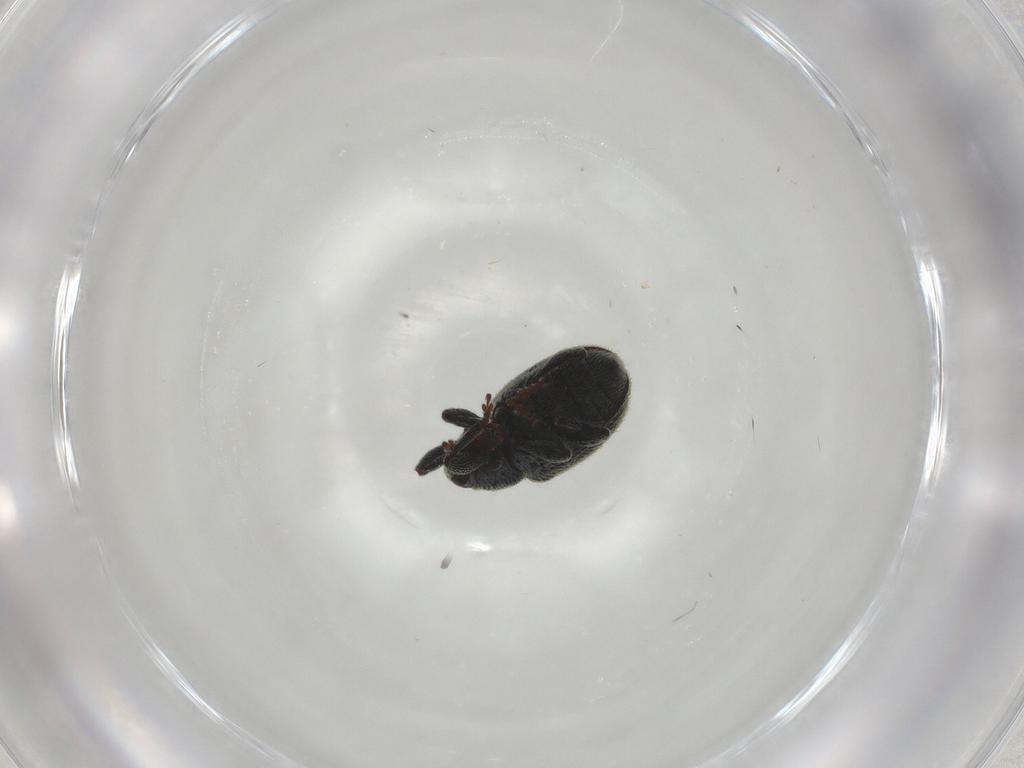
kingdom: Animalia
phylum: Arthropoda
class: Insecta
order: Coleoptera
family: Curculionidae
